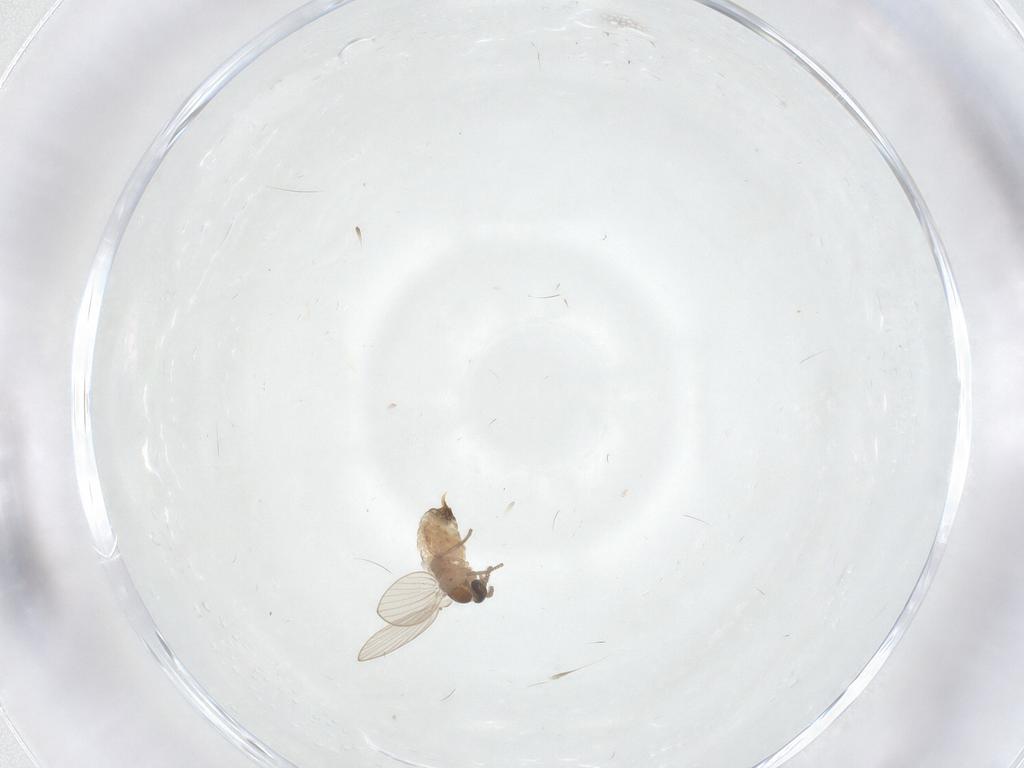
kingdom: Animalia
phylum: Arthropoda
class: Insecta
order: Diptera
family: Psychodidae
